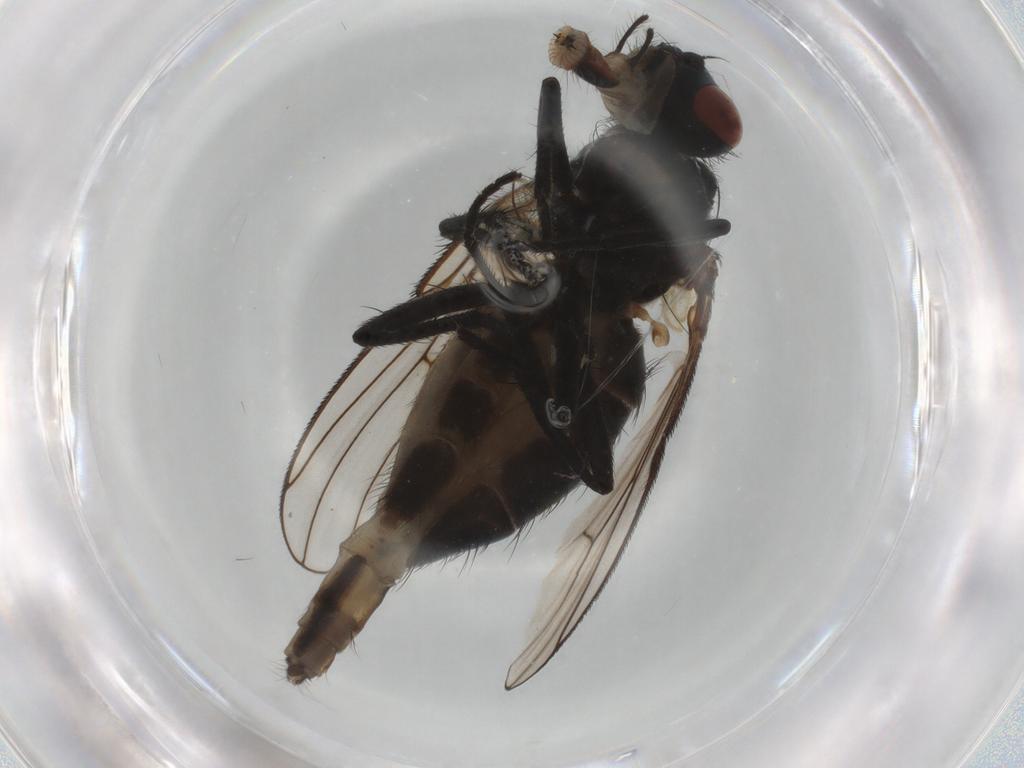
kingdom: Animalia
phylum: Arthropoda
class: Insecta
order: Diptera
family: Muscidae
